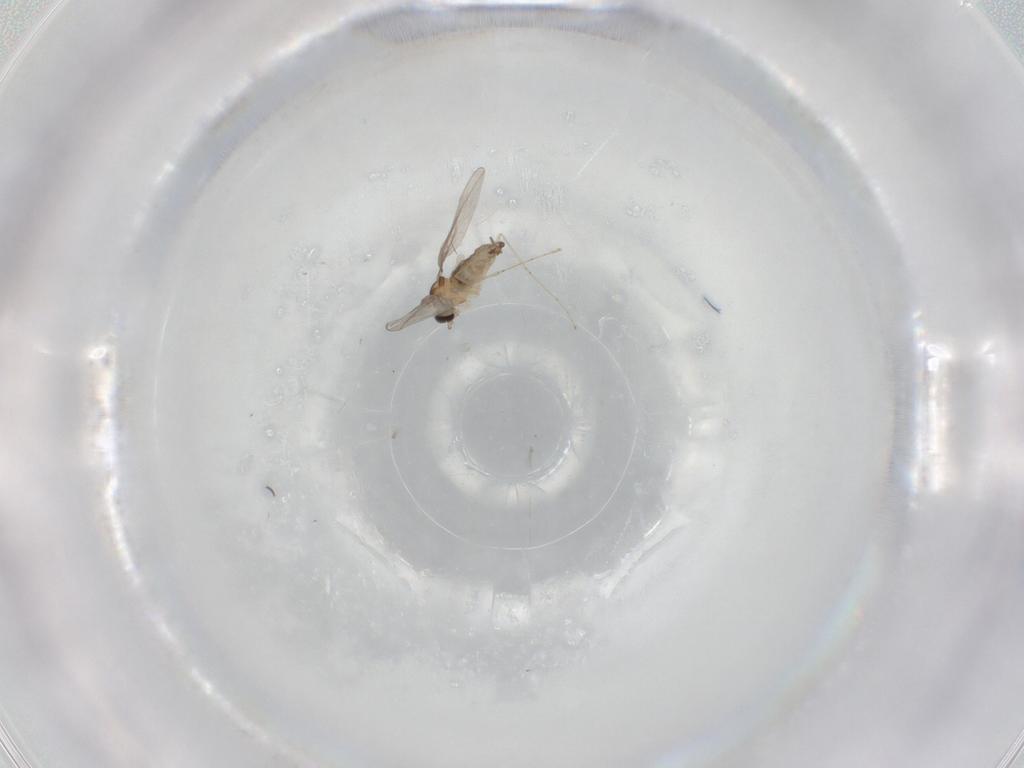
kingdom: Animalia
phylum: Arthropoda
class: Insecta
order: Diptera
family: Cecidomyiidae
